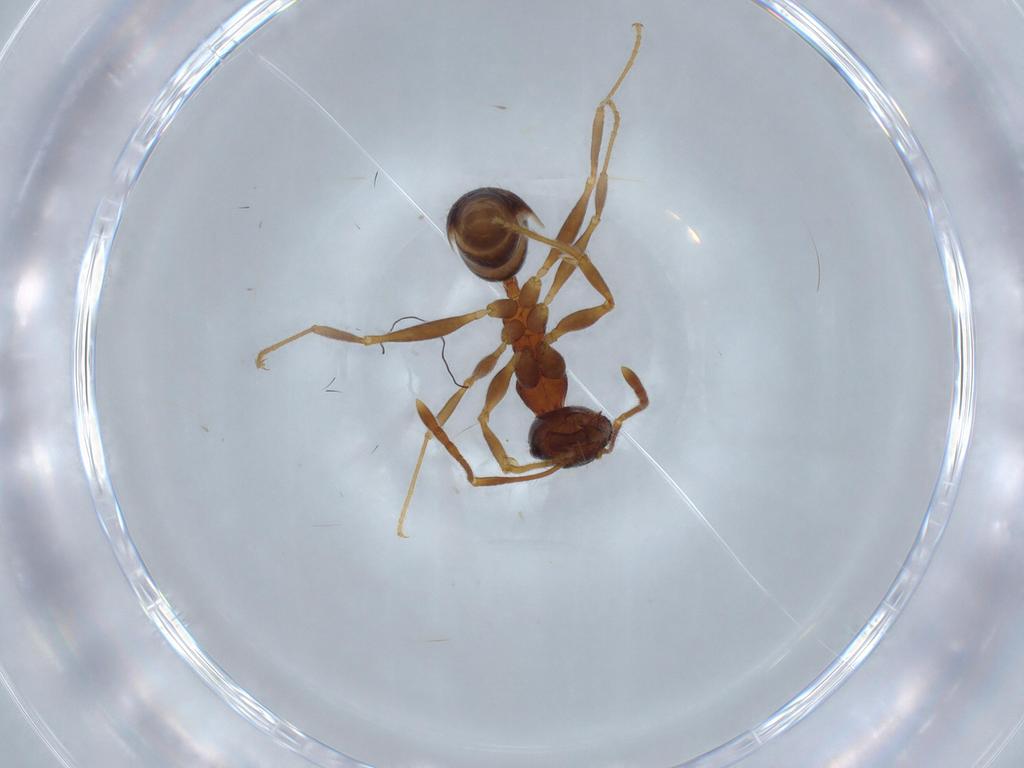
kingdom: Animalia
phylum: Arthropoda
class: Insecta
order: Hymenoptera
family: Formicidae
